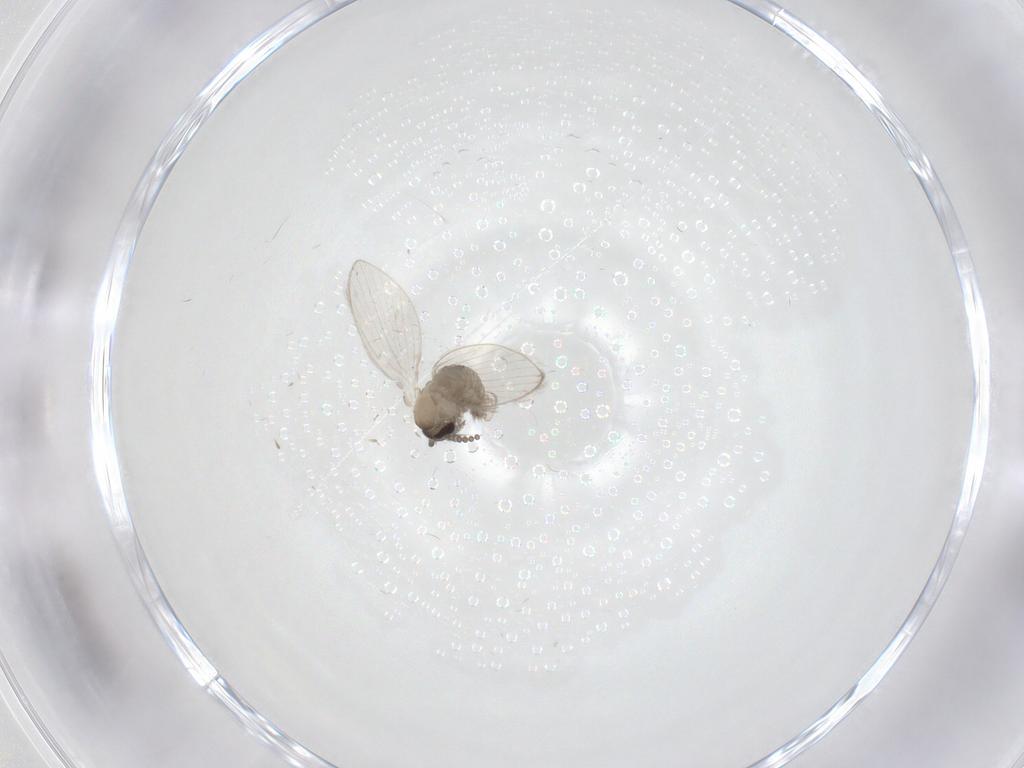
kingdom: Animalia
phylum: Arthropoda
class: Insecta
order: Diptera
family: Psychodidae
